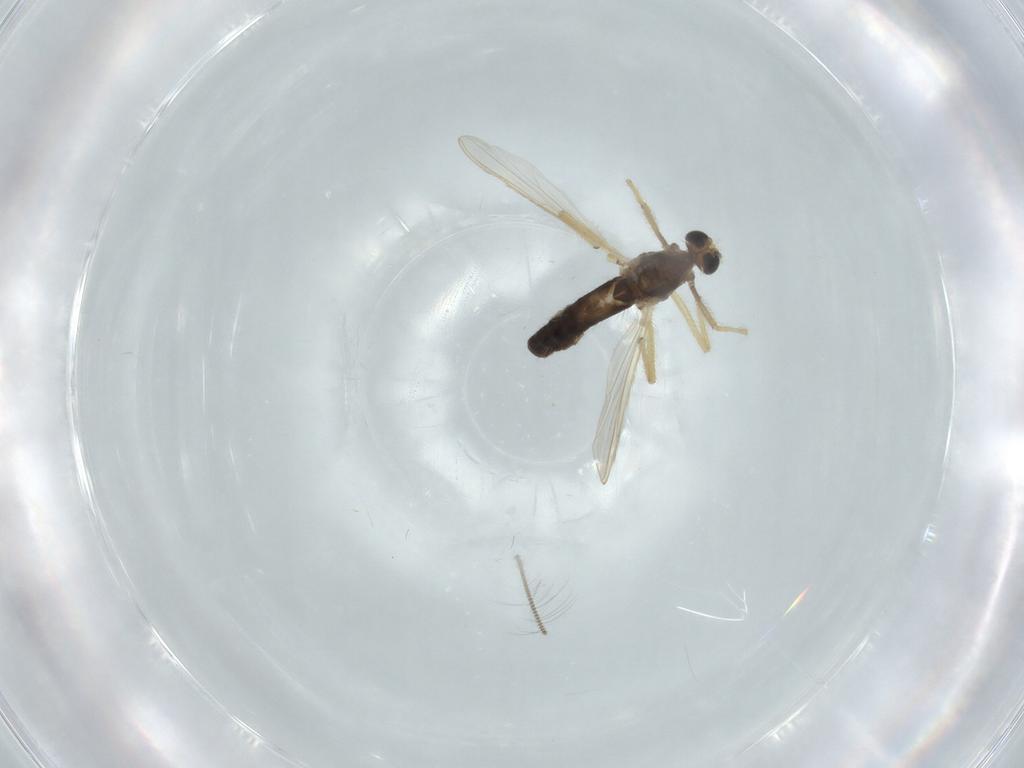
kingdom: Animalia
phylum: Arthropoda
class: Insecta
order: Diptera
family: Chironomidae
